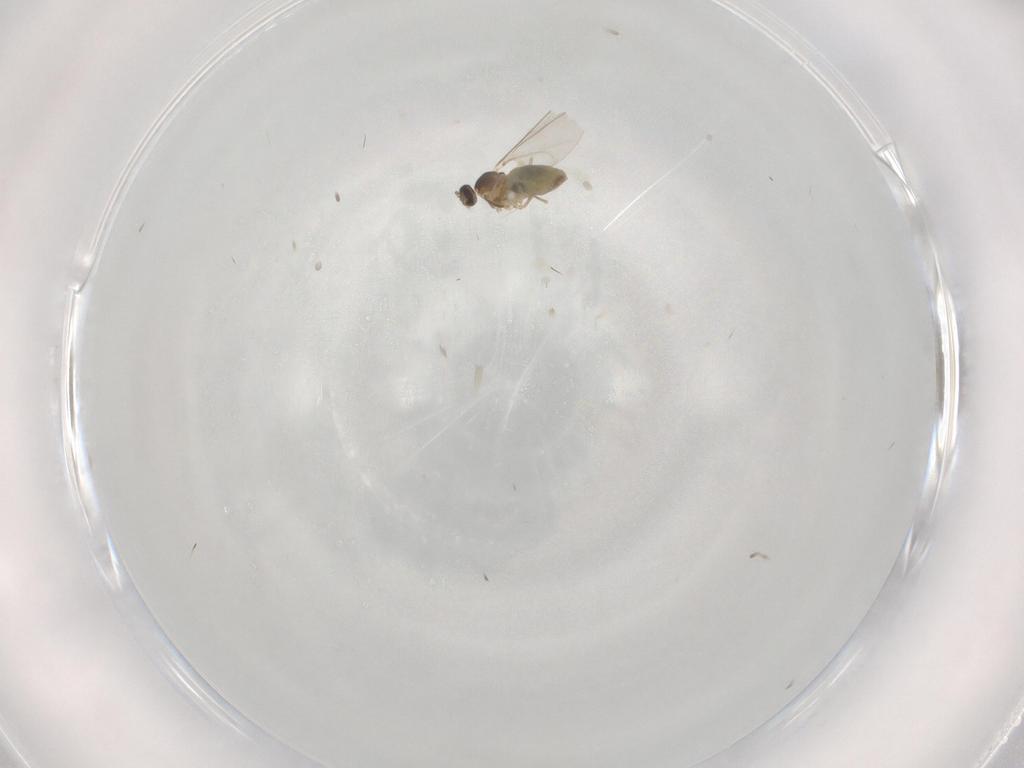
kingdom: Animalia
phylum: Arthropoda
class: Insecta
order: Diptera
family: Cecidomyiidae
